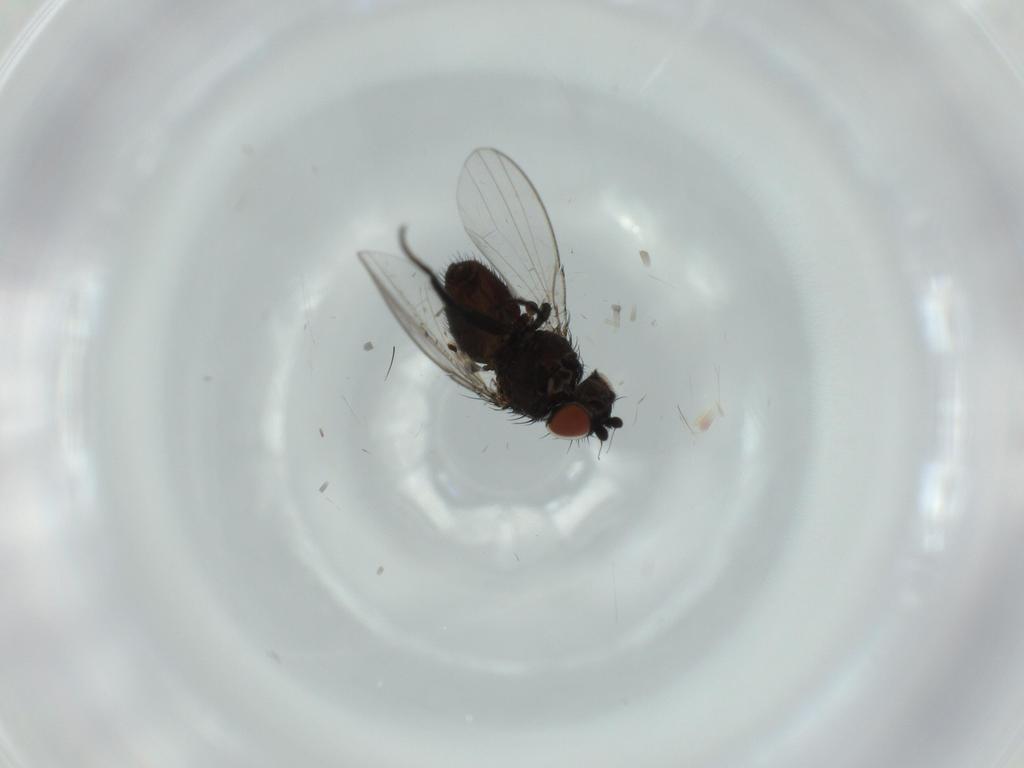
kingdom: Animalia
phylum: Arthropoda
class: Insecta
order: Diptera
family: Milichiidae
